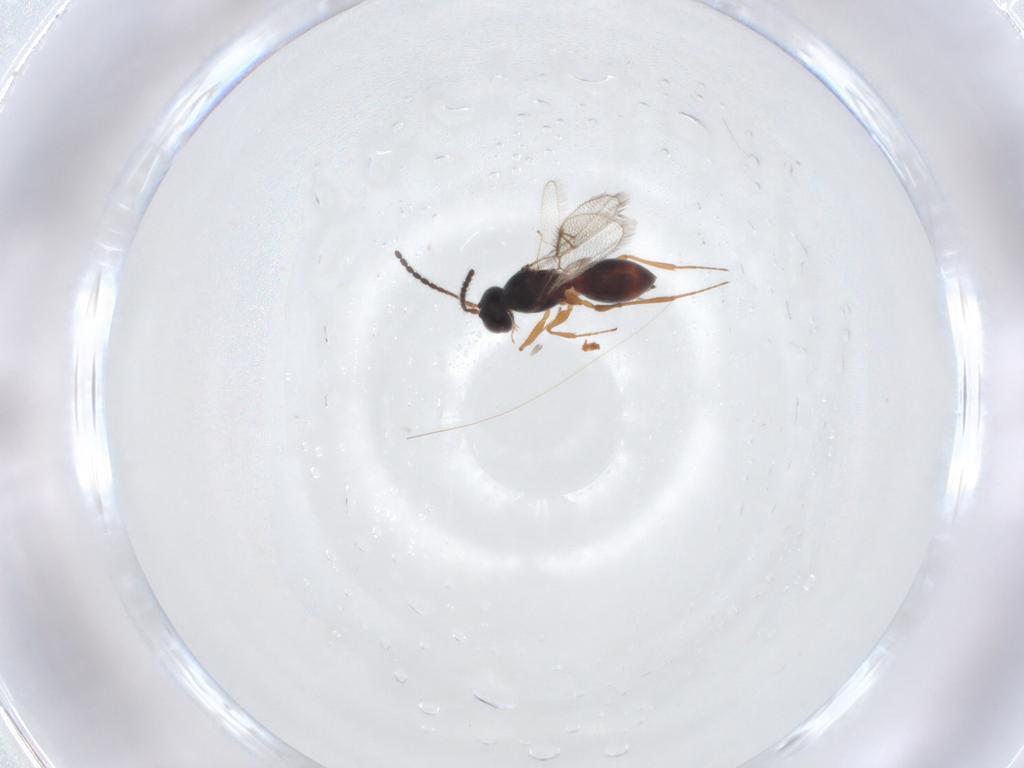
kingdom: Animalia
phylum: Arthropoda
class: Insecta
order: Hymenoptera
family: Figitidae
